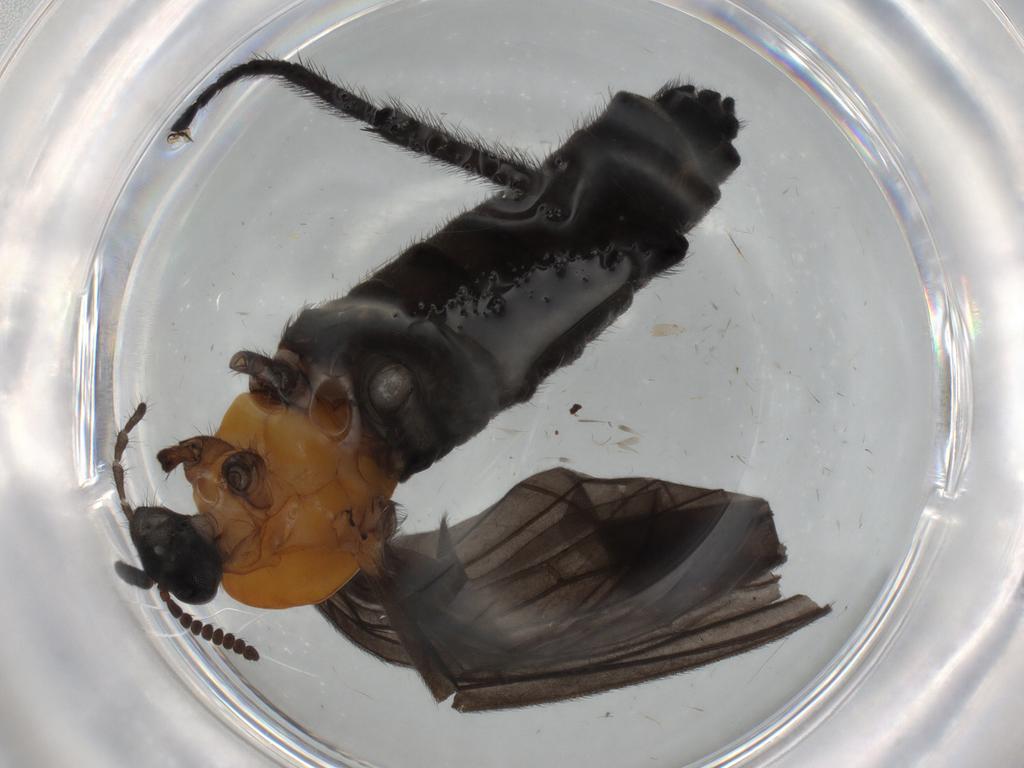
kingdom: Animalia
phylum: Arthropoda
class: Insecta
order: Diptera
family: Bibionidae
